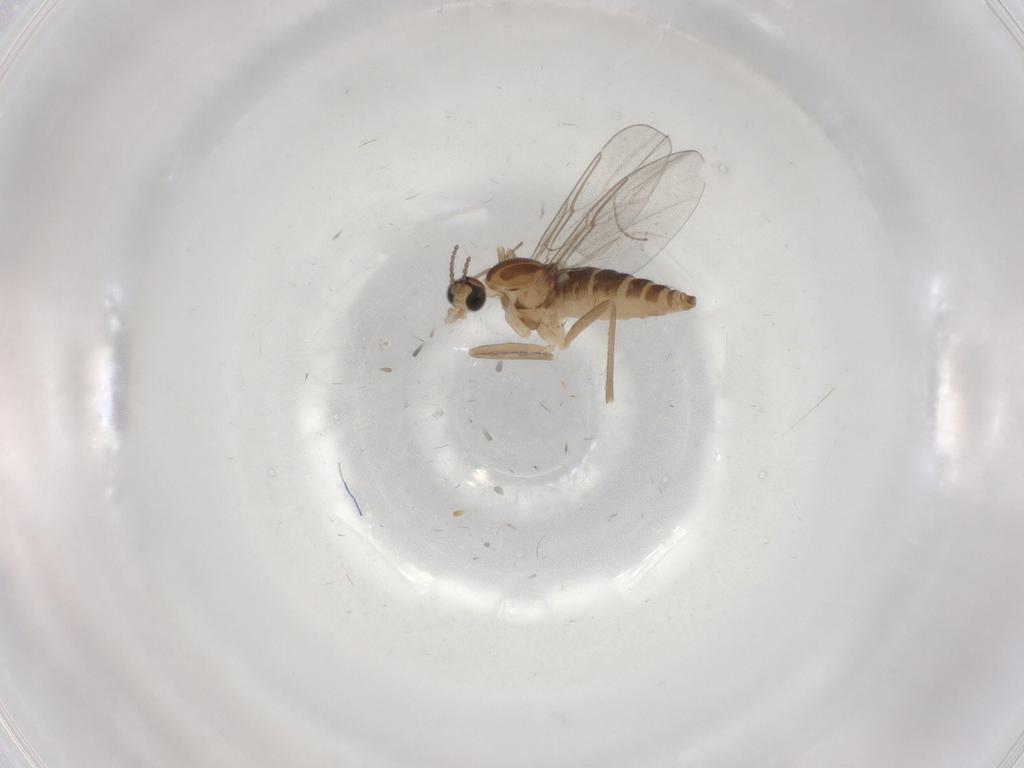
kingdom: Animalia
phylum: Arthropoda
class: Insecta
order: Diptera
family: Cecidomyiidae
